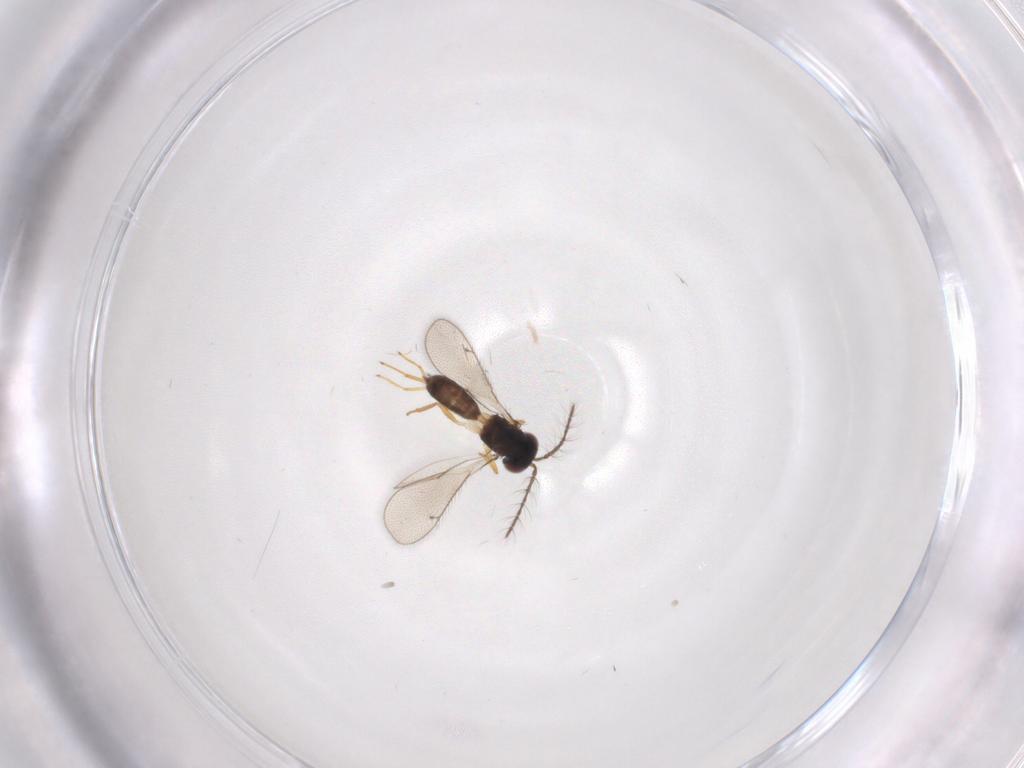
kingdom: Animalia
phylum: Arthropoda
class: Insecta
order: Hymenoptera
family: Eulophidae
